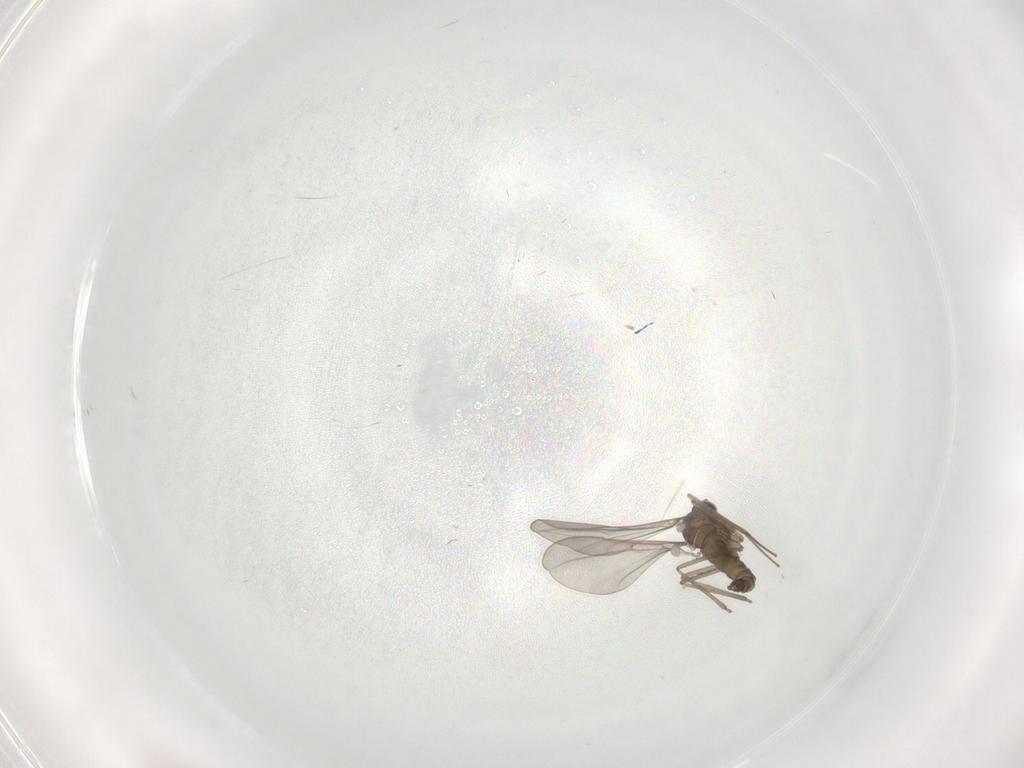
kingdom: Animalia
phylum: Arthropoda
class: Insecta
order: Diptera
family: Cecidomyiidae
